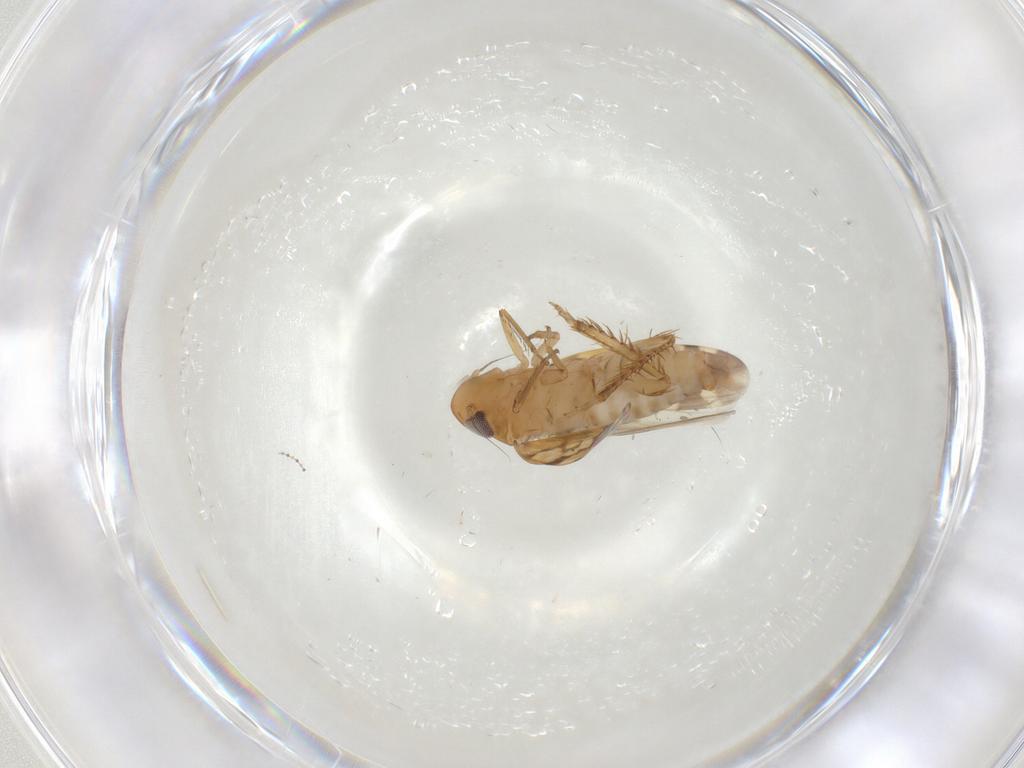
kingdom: Animalia
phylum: Arthropoda
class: Insecta
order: Hemiptera
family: Cicadellidae
